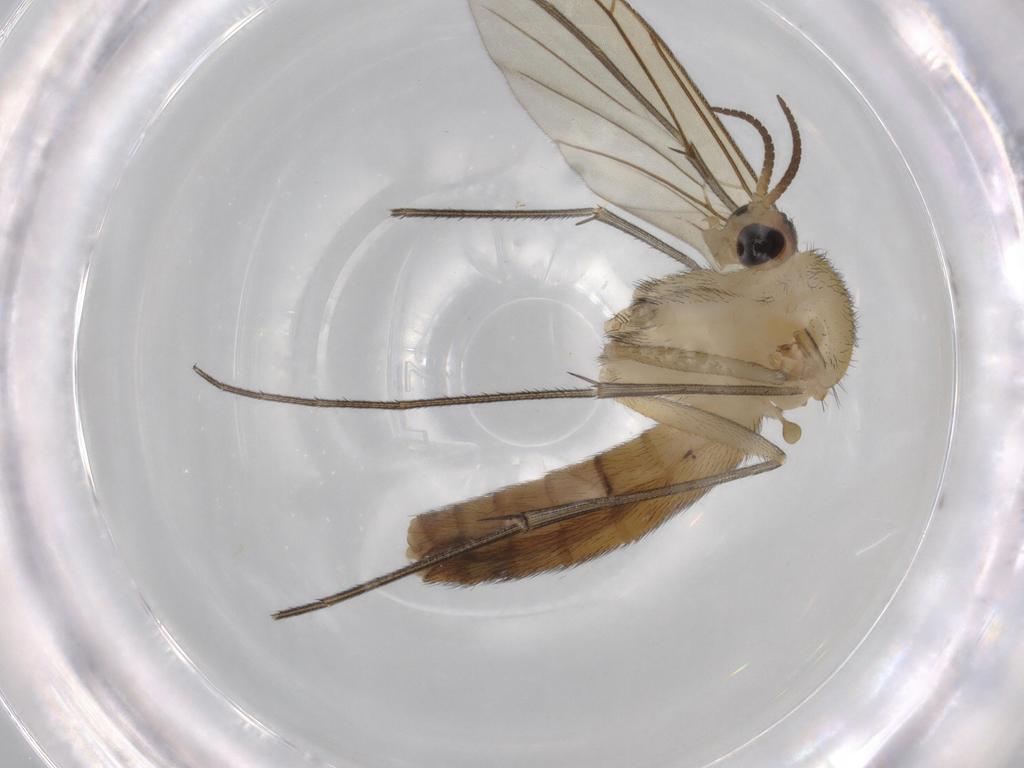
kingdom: Animalia
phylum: Arthropoda
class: Insecta
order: Diptera
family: Keroplatidae
